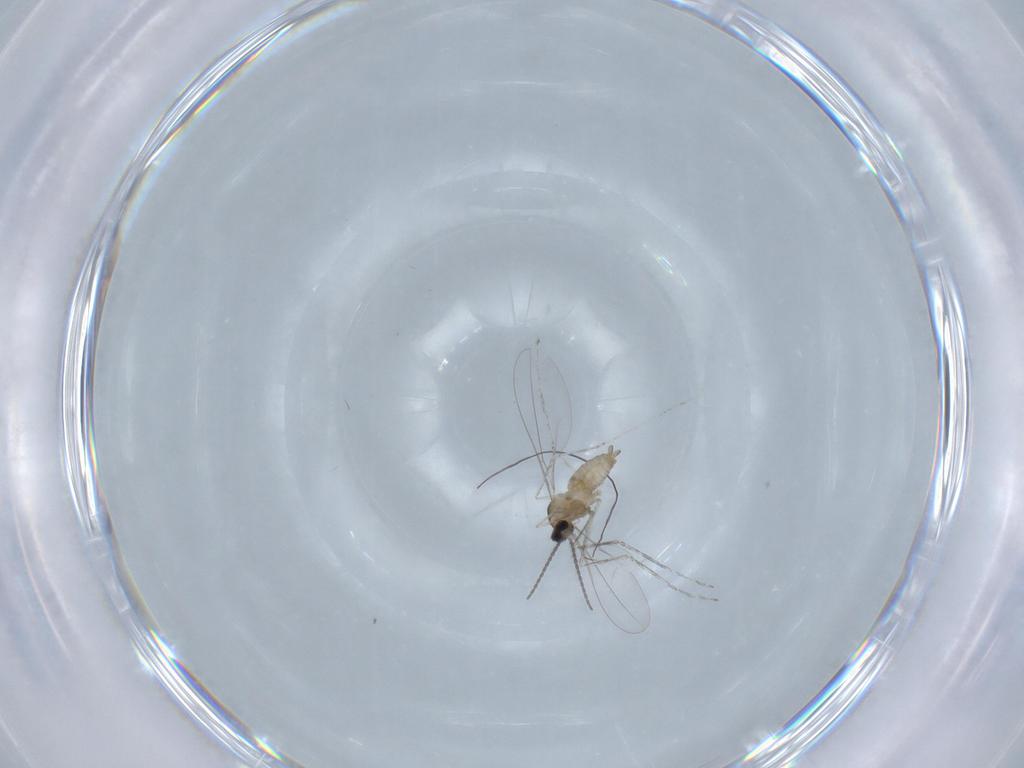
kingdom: Animalia
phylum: Arthropoda
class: Insecta
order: Diptera
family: Cecidomyiidae
